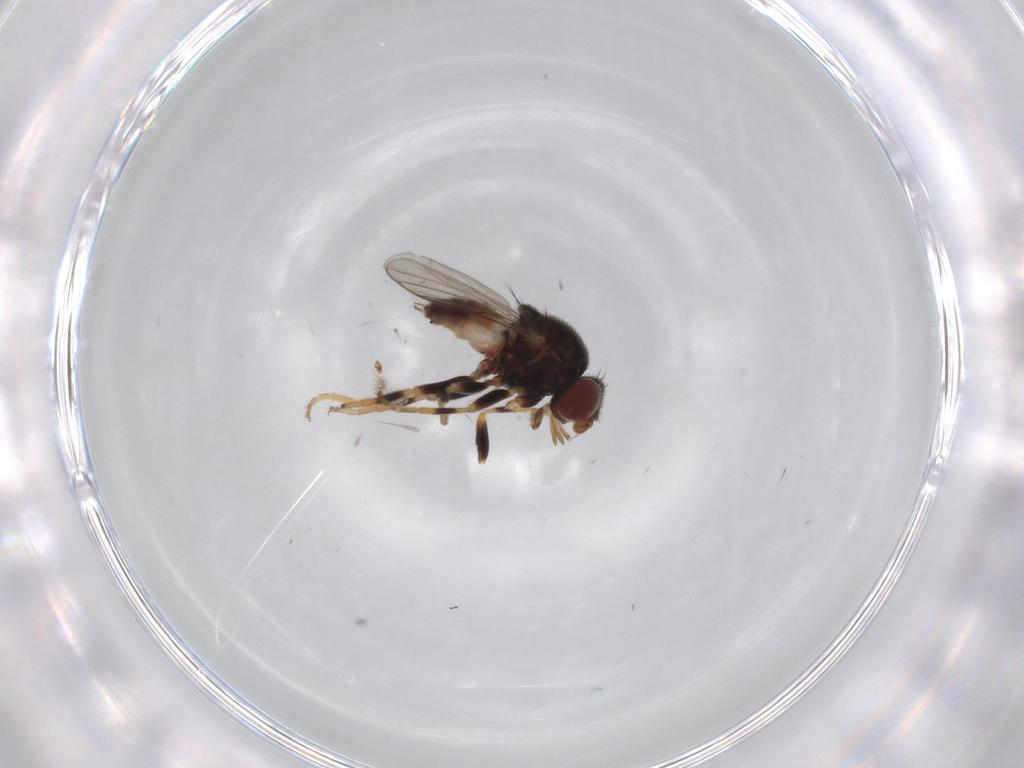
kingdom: Animalia
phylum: Arthropoda
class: Insecta
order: Diptera
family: Chloropidae
